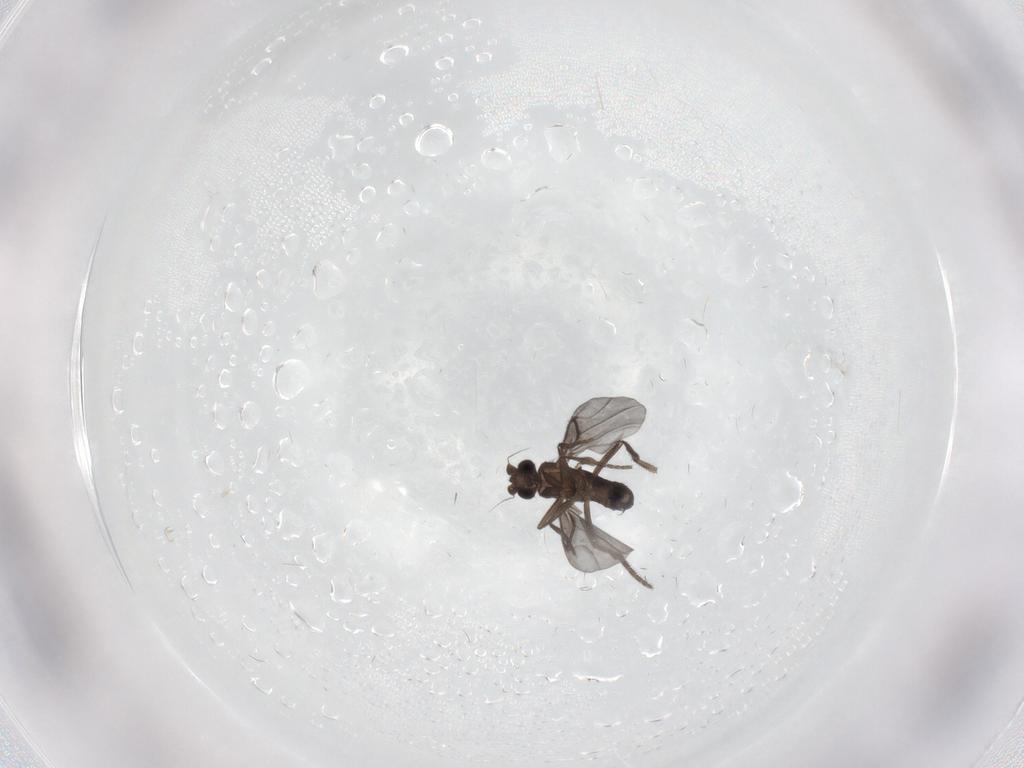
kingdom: Animalia
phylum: Arthropoda
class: Insecta
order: Diptera
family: Phoridae
